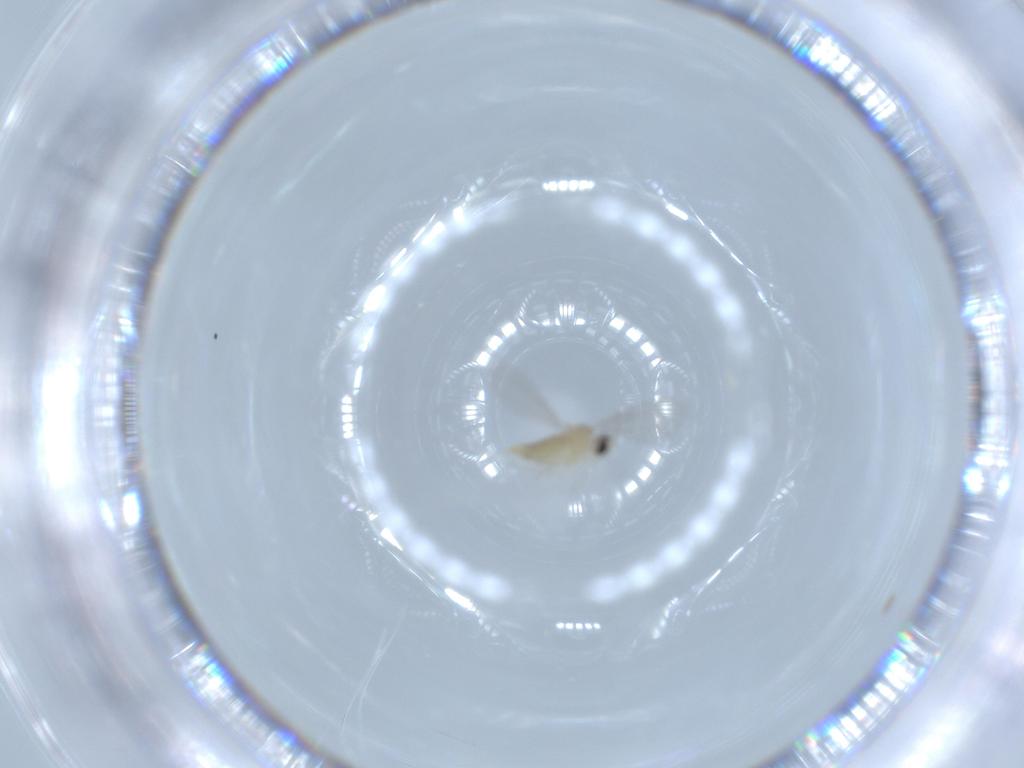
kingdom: Animalia
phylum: Arthropoda
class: Insecta
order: Diptera
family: Cecidomyiidae
